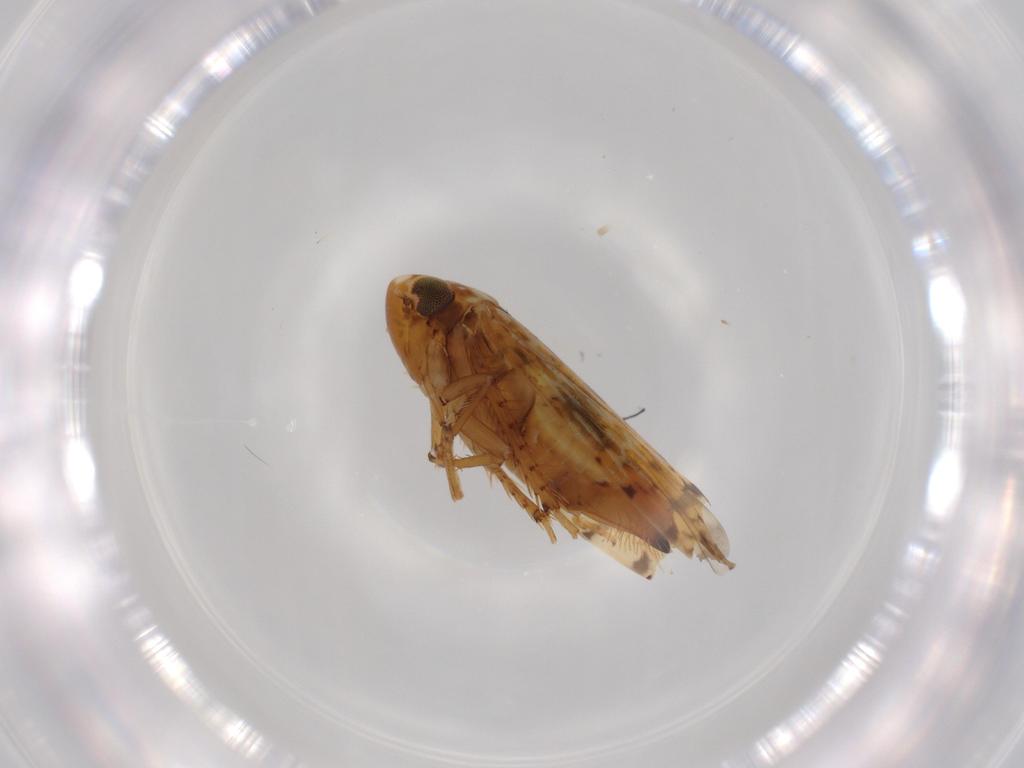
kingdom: Animalia
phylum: Arthropoda
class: Insecta
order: Hemiptera
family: Cicadellidae
